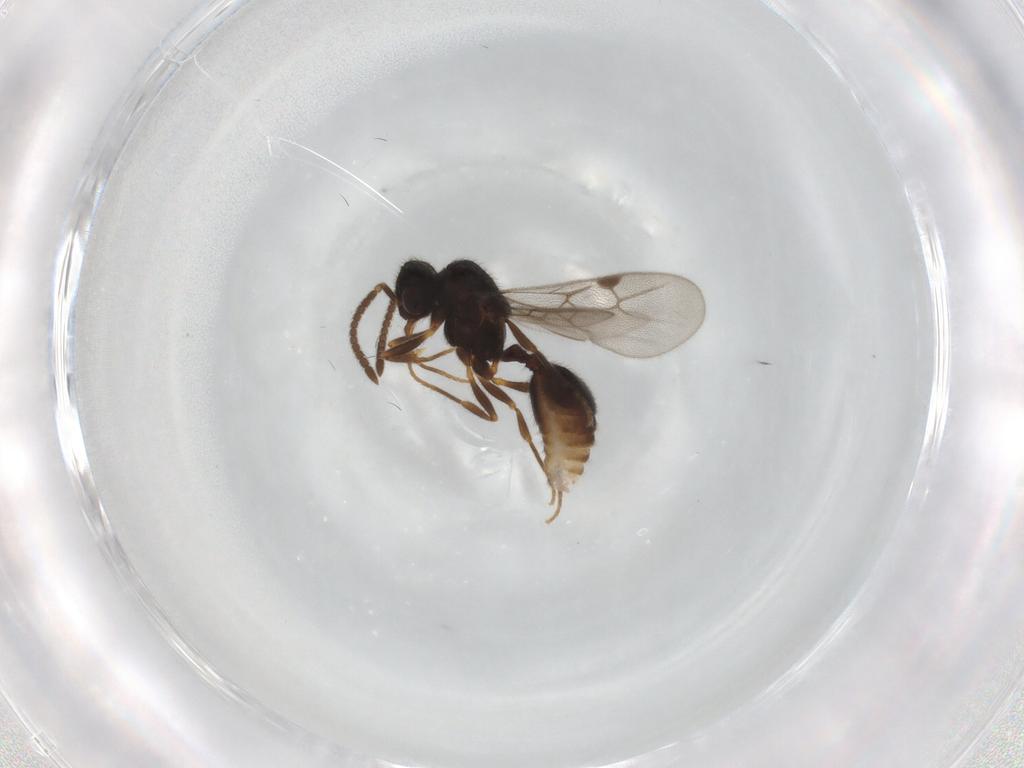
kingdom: Animalia
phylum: Arthropoda
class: Insecta
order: Hymenoptera
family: Formicidae
